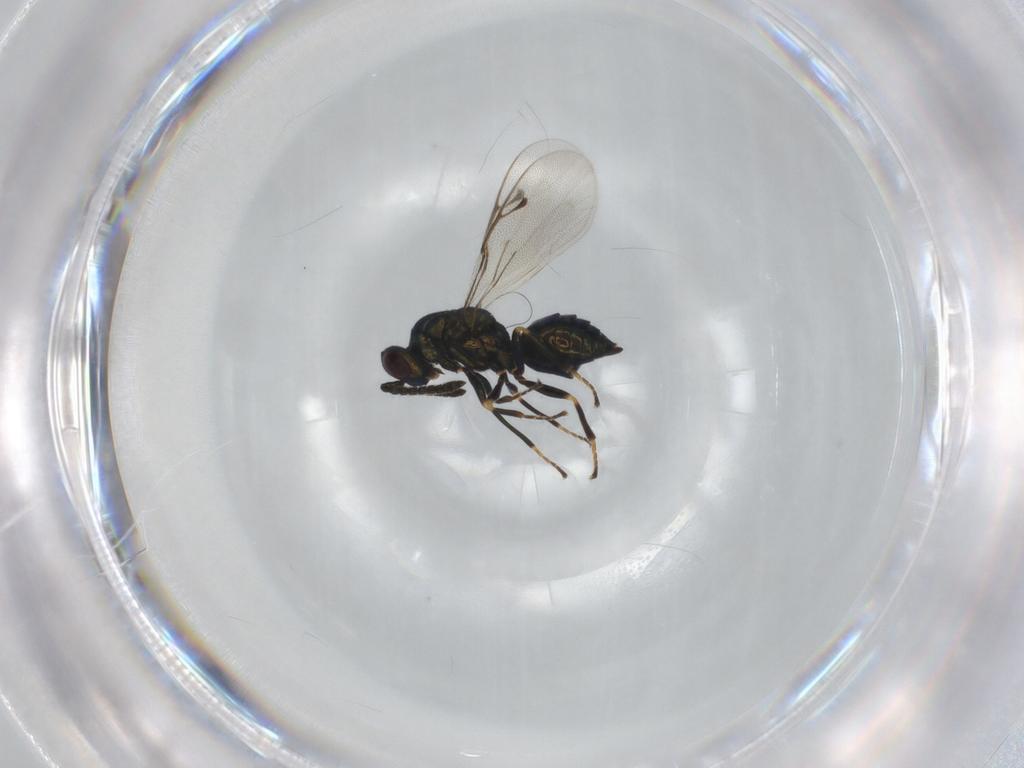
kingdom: Animalia
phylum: Arthropoda
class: Insecta
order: Hymenoptera
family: Pteromalidae
